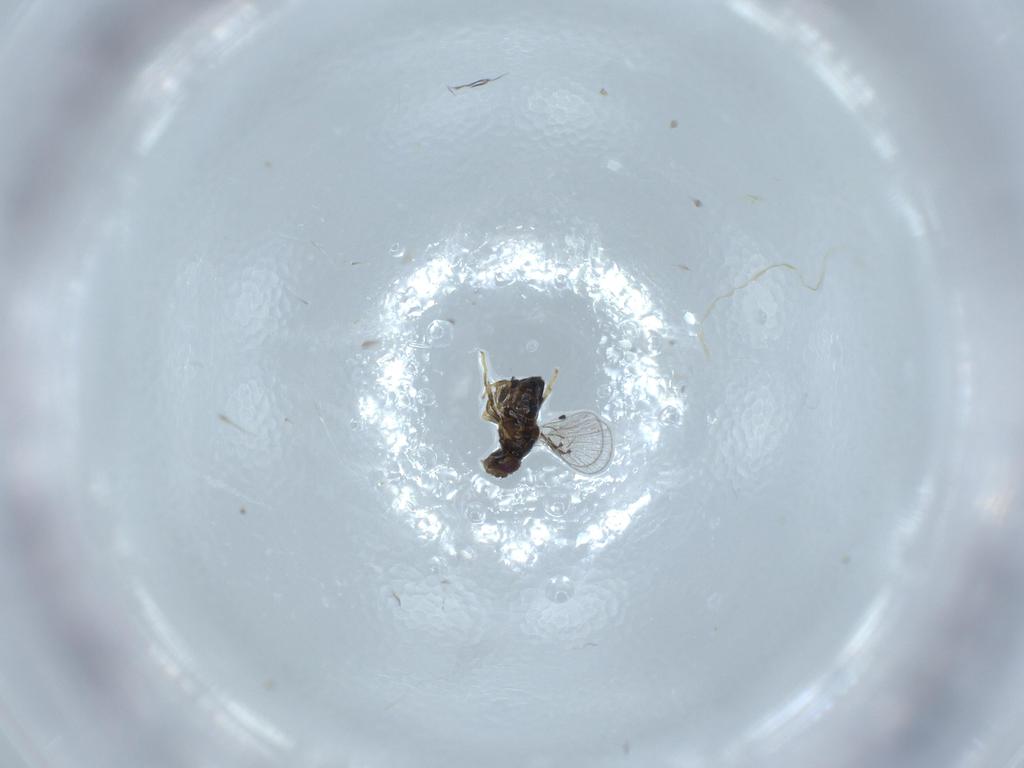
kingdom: Animalia
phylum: Arthropoda
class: Insecta
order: Hymenoptera
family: Trichogrammatidae
